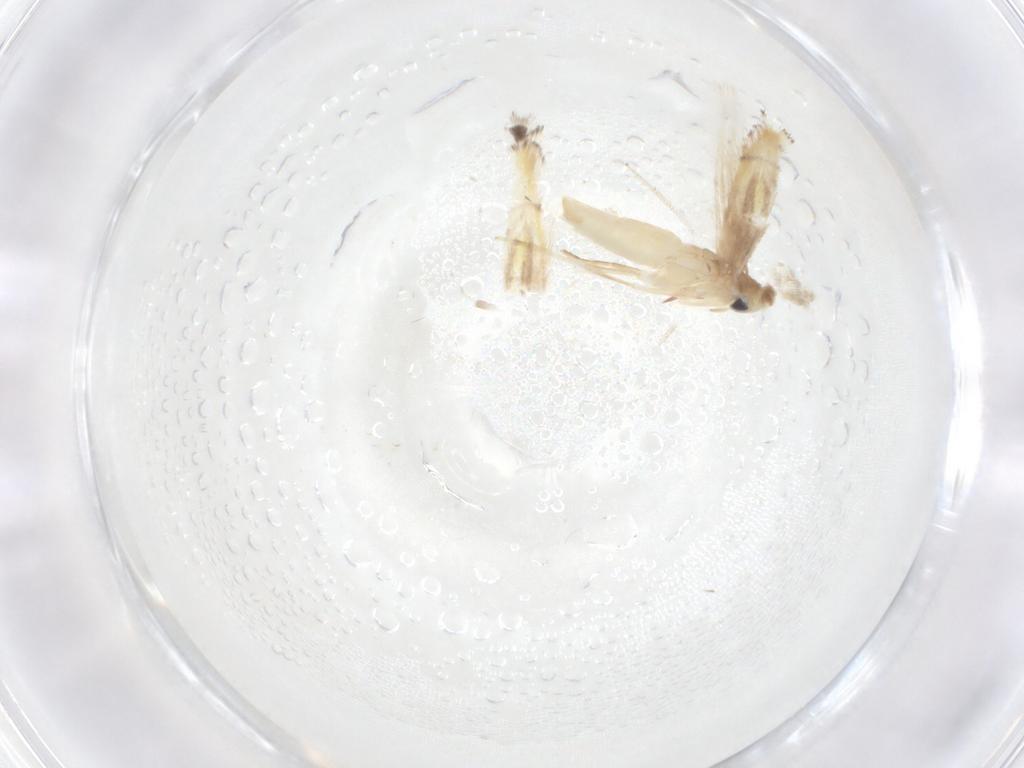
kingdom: Animalia
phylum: Arthropoda
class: Insecta
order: Lepidoptera
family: Gracillariidae
